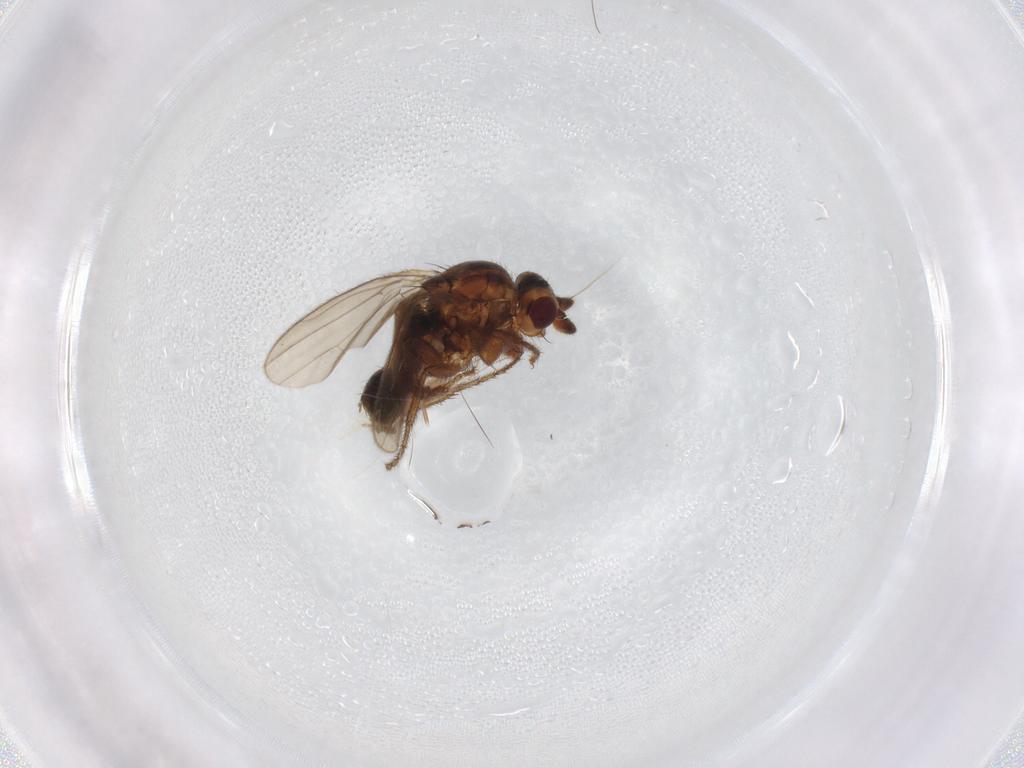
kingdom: Animalia
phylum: Arthropoda
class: Insecta
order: Diptera
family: Sphaeroceridae
